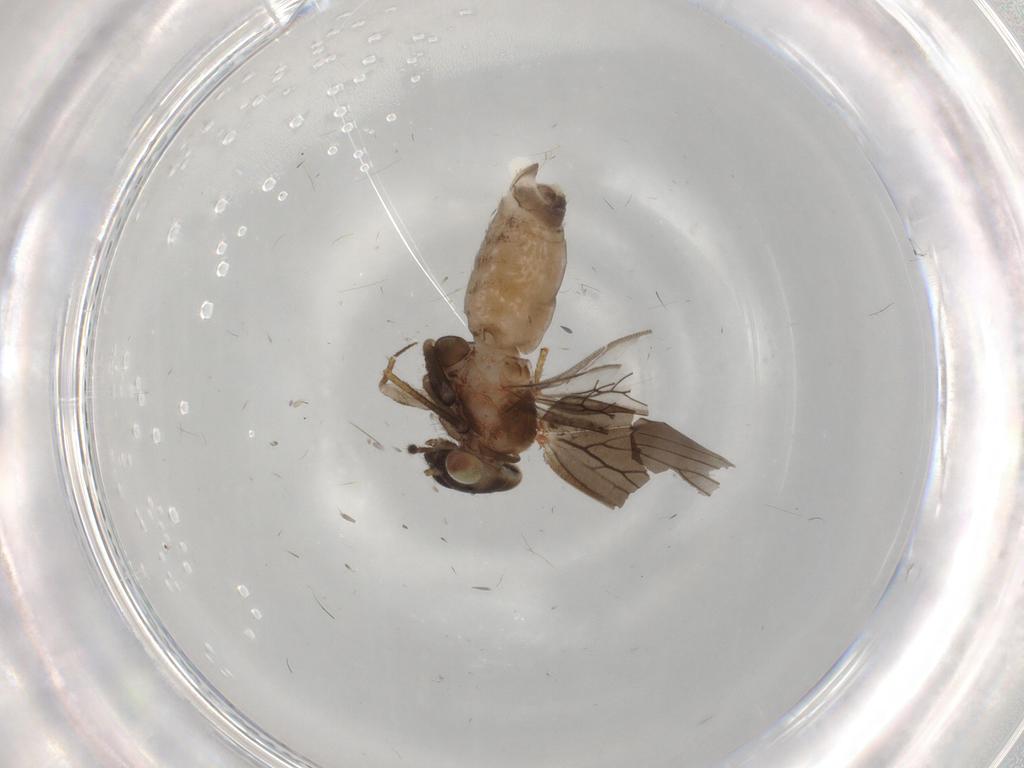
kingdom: Animalia
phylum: Arthropoda
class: Insecta
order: Psocodea
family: Lepidopsocidae
